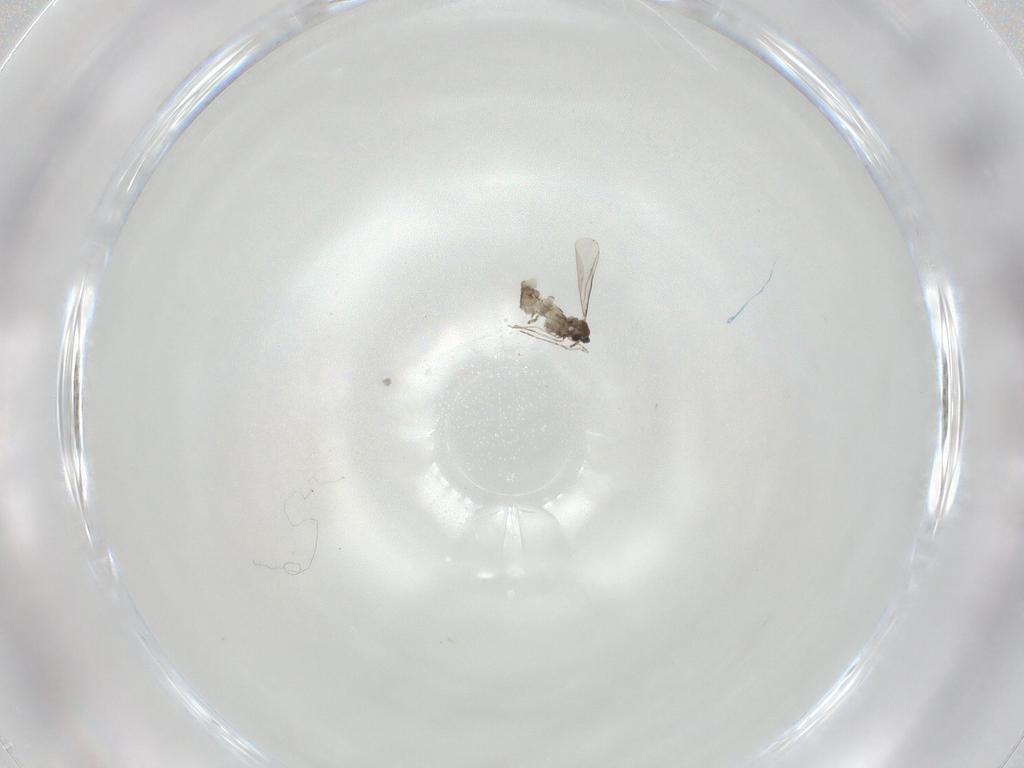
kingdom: Animalia
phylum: Arthropoda
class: Insecta
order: Diptera
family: Cecidomyiidae
